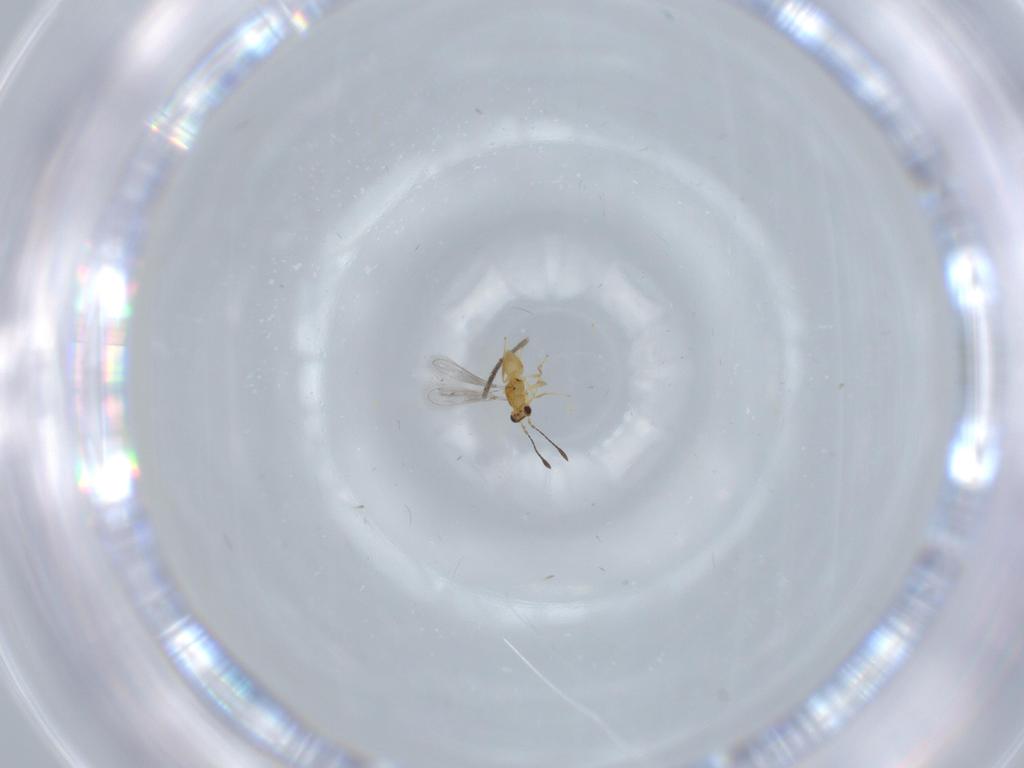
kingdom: Animalia
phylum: Arthropoda
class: Insecta
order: Hymenoptera
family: Mymaridae
